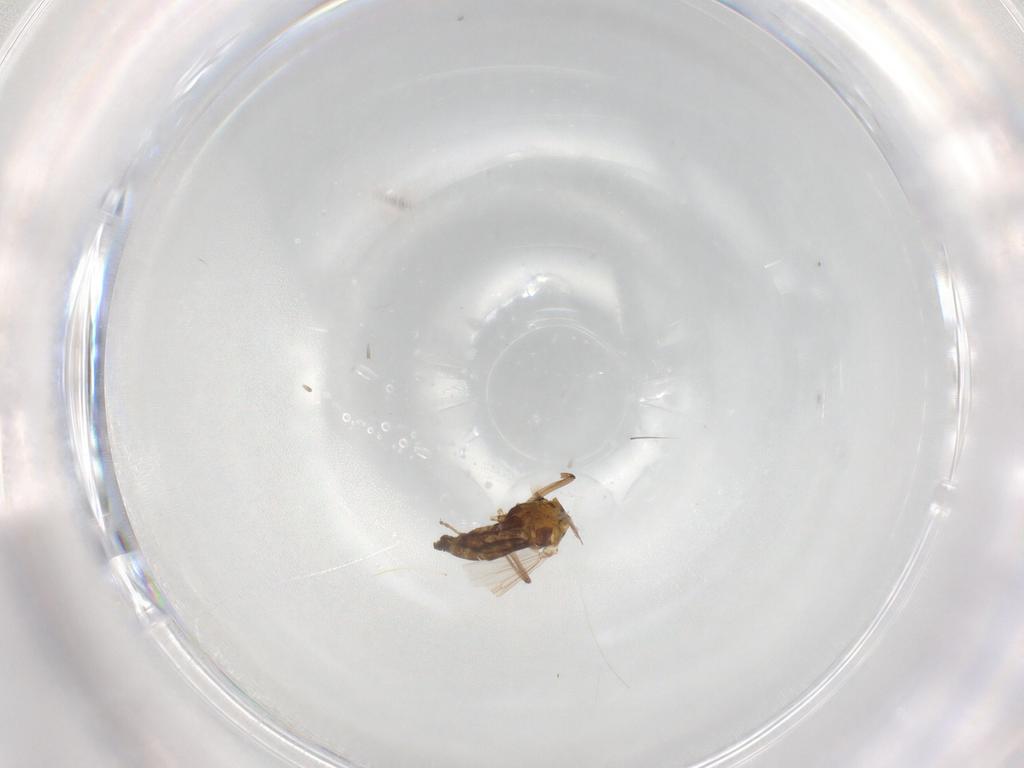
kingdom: Animalia
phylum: Arthropoda
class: Insecta
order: Diptera
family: Chironomidae
